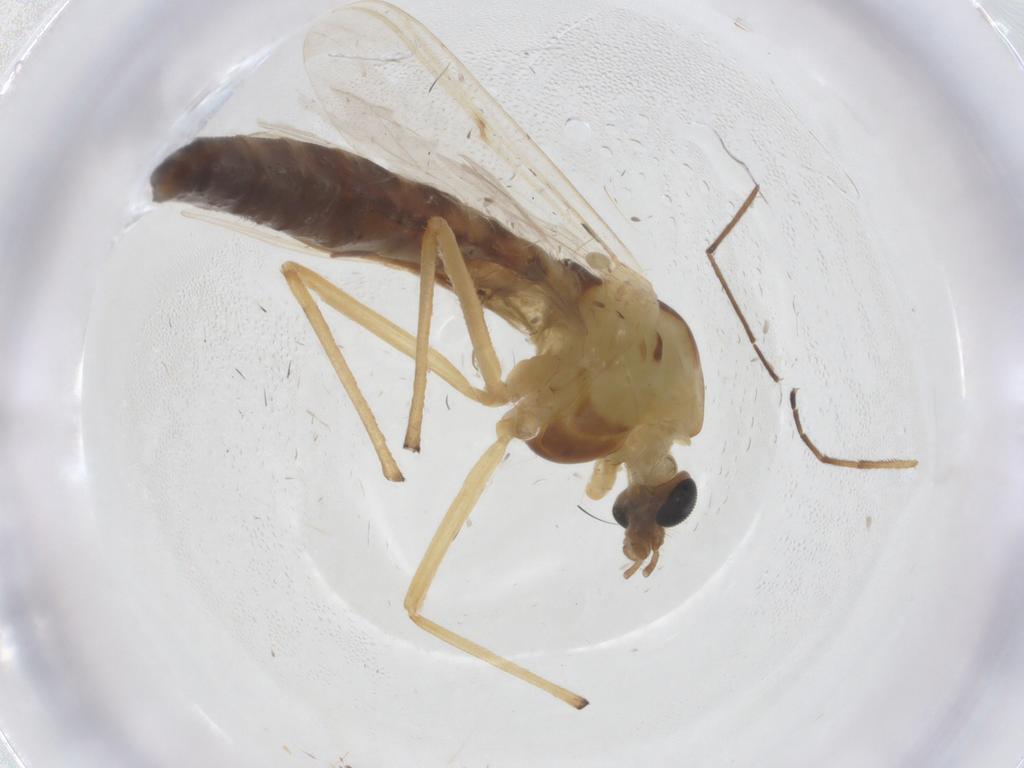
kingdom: Animalia
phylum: Arthropoda
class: Insecta
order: Diptera
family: Chironomidae
